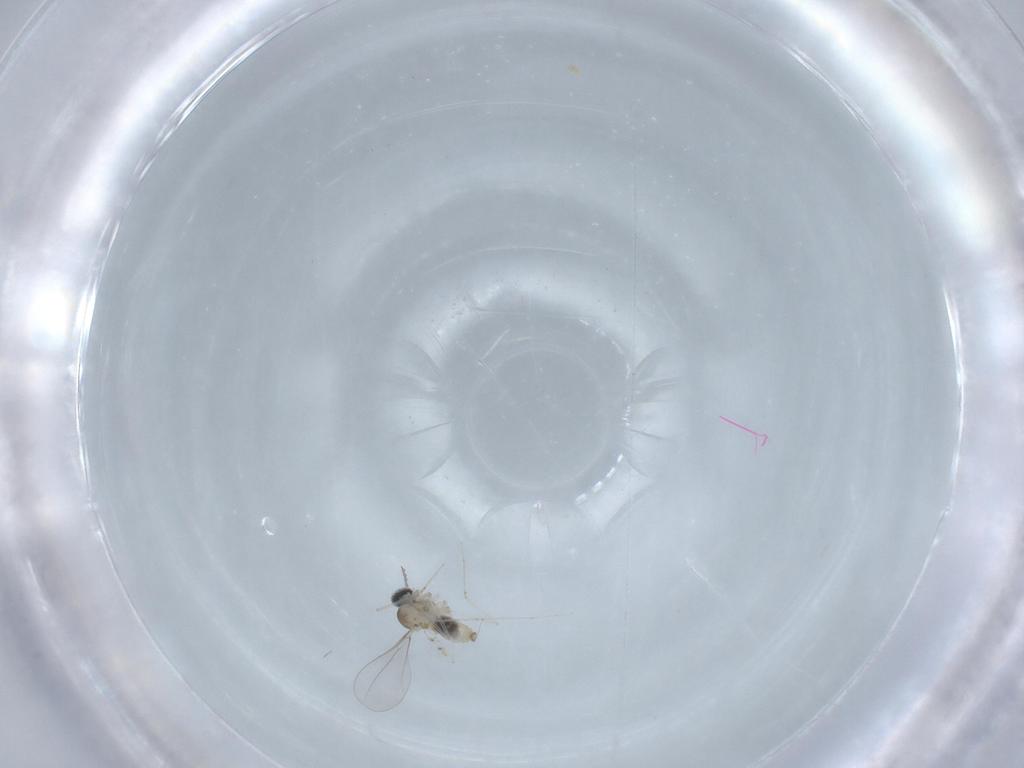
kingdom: Animalia
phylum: Arthropoda
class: Insecta
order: Diptera
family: Cecidomyiidae
